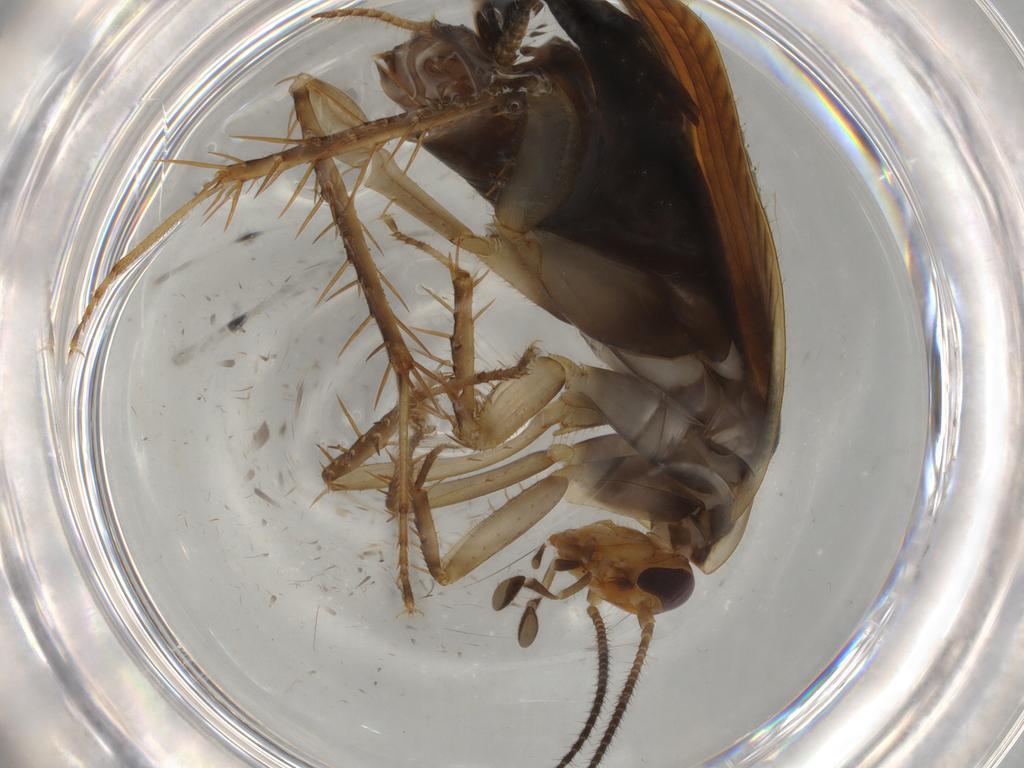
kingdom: Animalia
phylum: Arthropoda
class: Insecta
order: Blattodea
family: Ectobiidae
